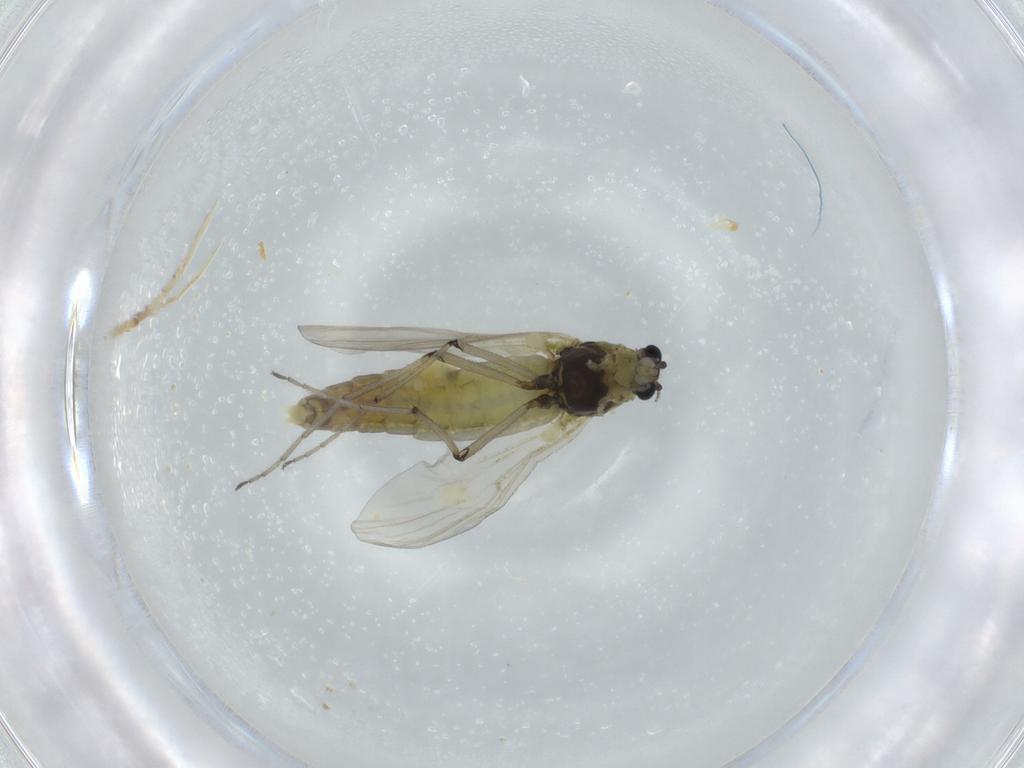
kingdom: Animalia
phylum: Arthropoda
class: Insecta
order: Diptera
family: Chironomidae
